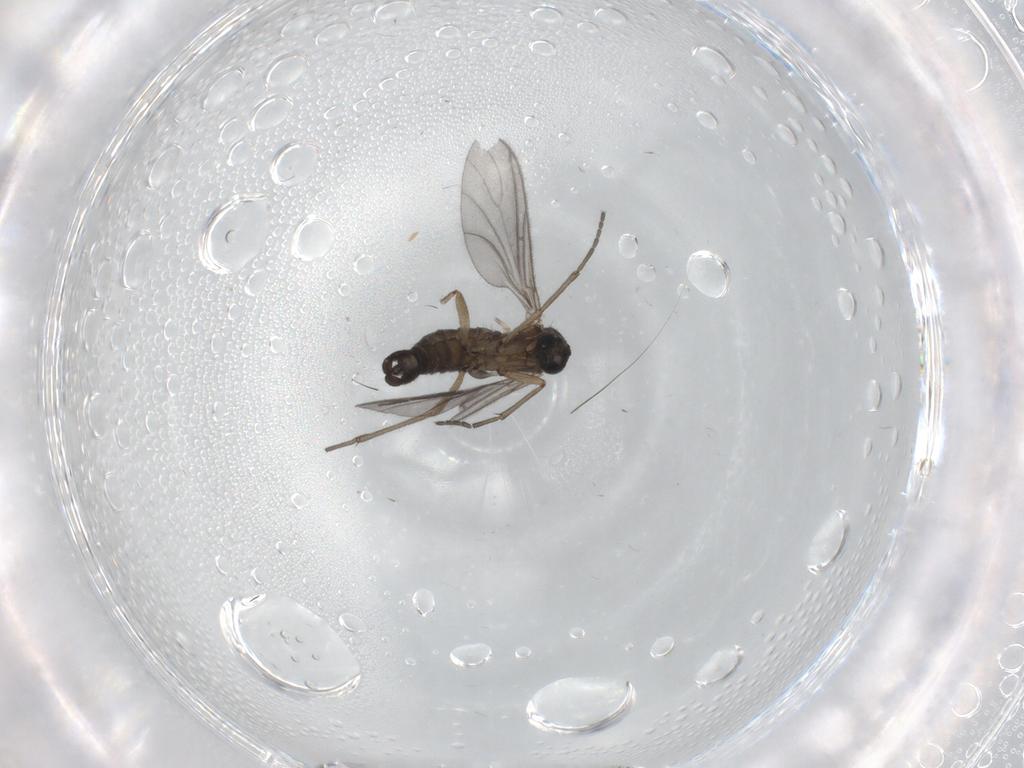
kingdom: Animalia
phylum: Arthropoda
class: Insecta
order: Diptera
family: Sciaridae
